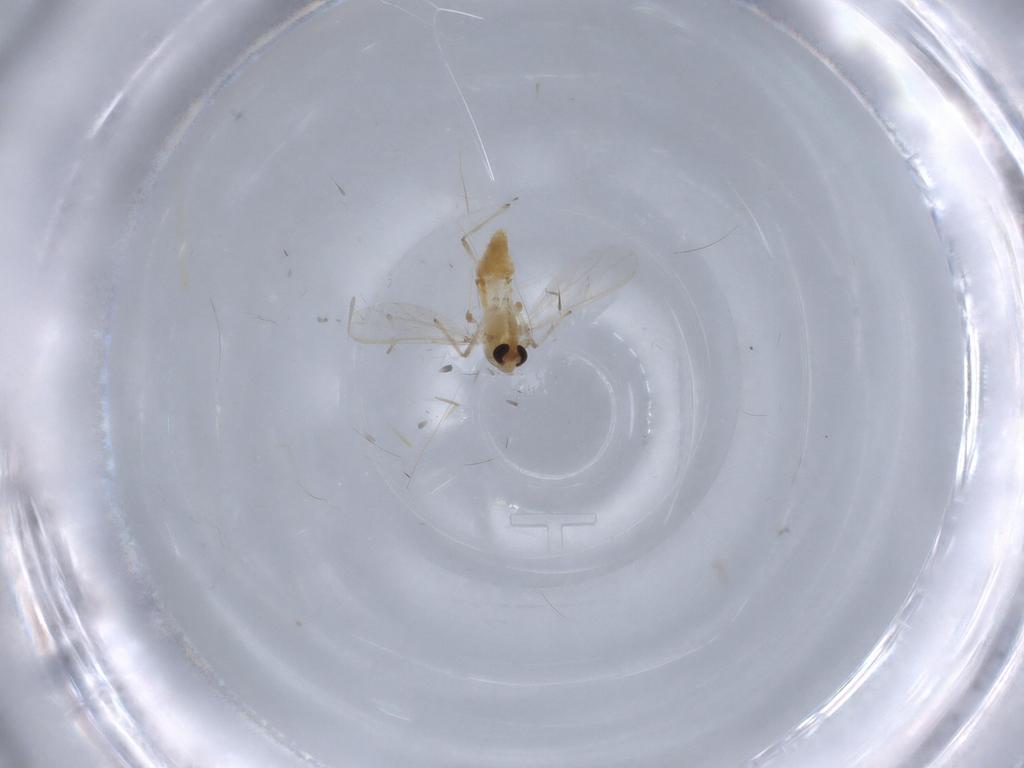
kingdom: Animalia
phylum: Arthropoda
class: Insecta
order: Diptera
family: Chironomidae
